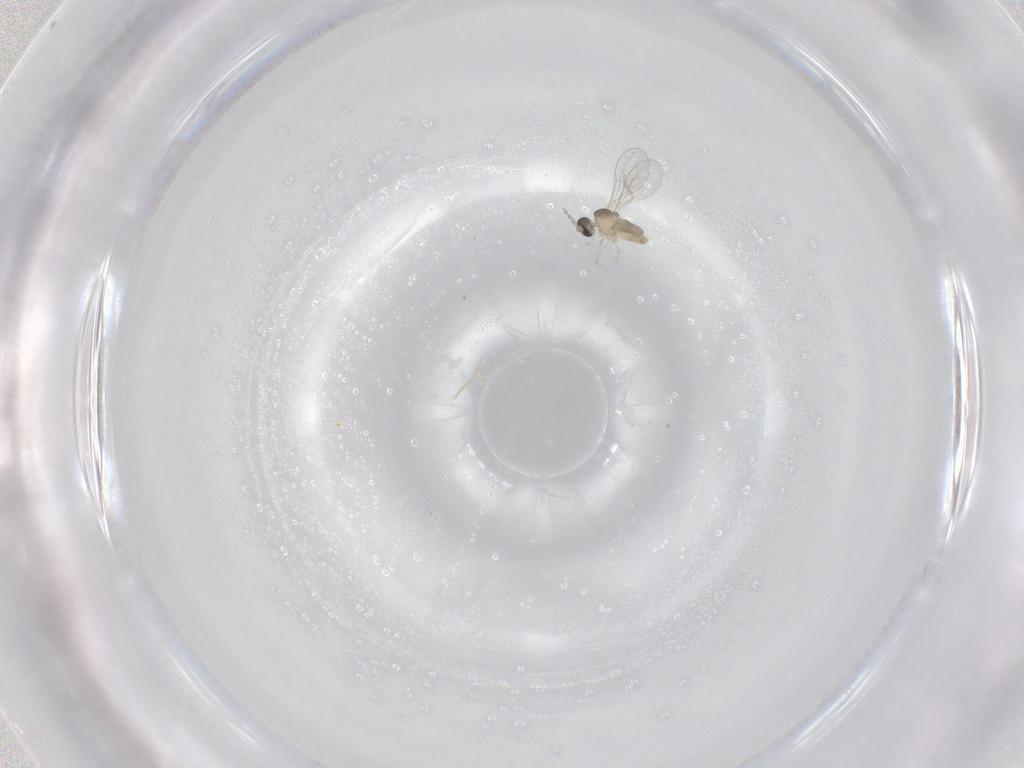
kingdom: Animalia
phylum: Arthropoda
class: Insecta
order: Diptera
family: Cecidomyiidae
